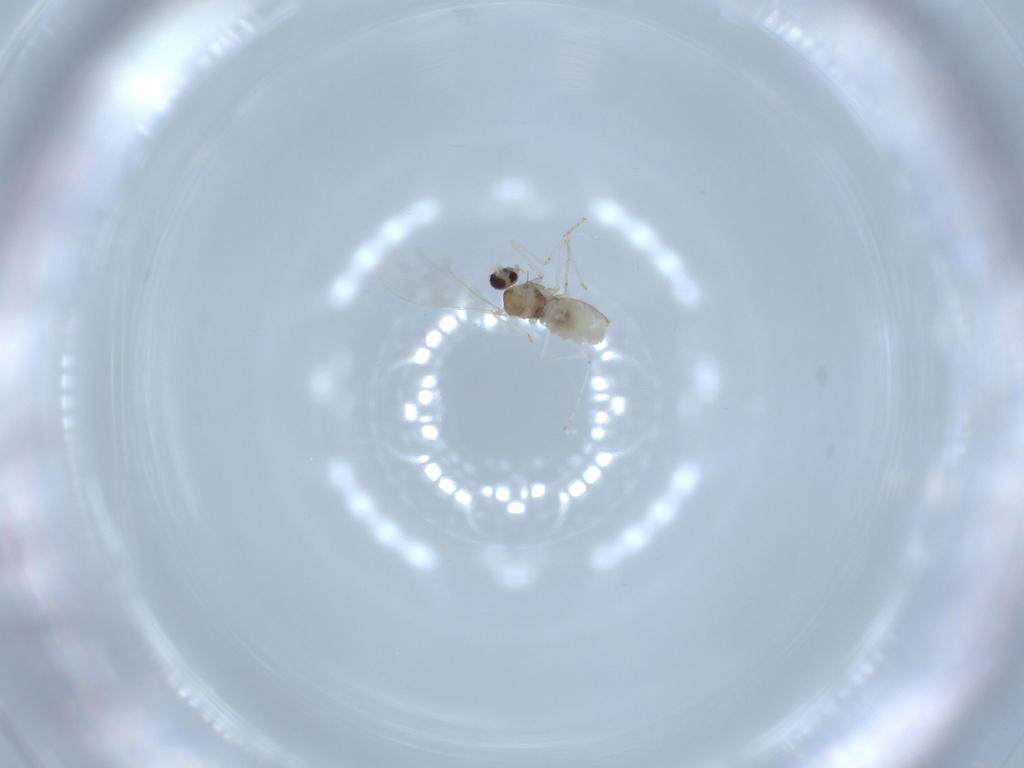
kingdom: Animalia
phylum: Arthropoda
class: Insecta
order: Diptera
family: Cecidomyiidae
